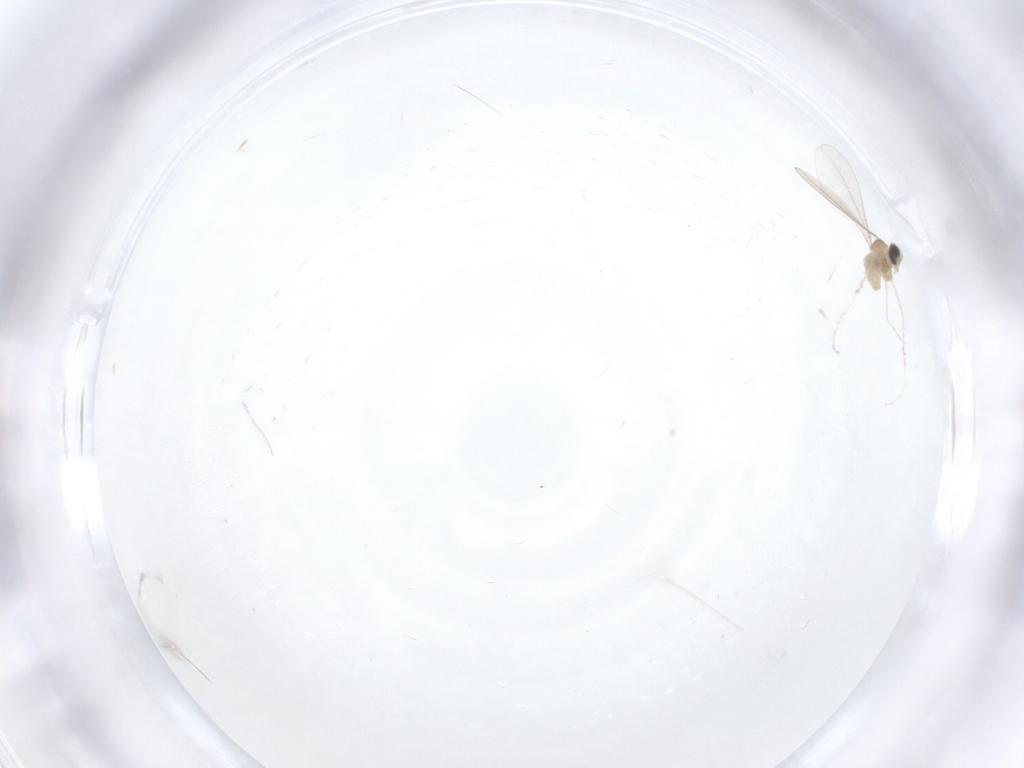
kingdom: Animalia
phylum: Arthropoda
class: Insecta
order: Diptera
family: Cecidomyiidae
